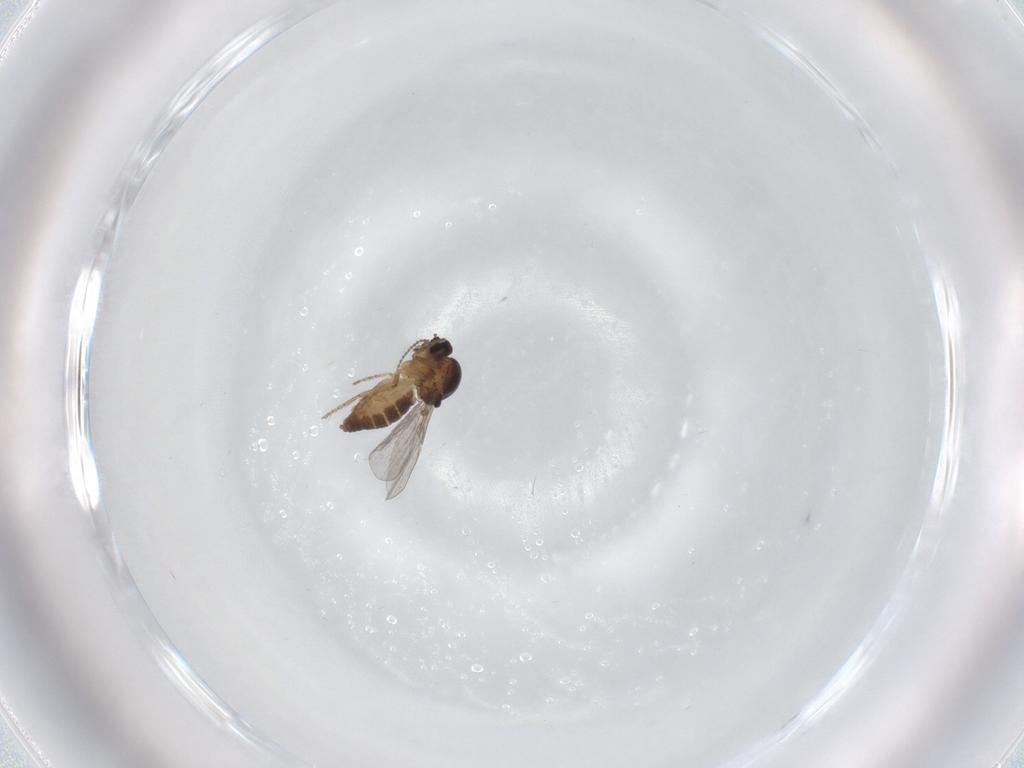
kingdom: Animalia
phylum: Arthropoda
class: Insecta
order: Diptera
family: Ceratopogonidae
